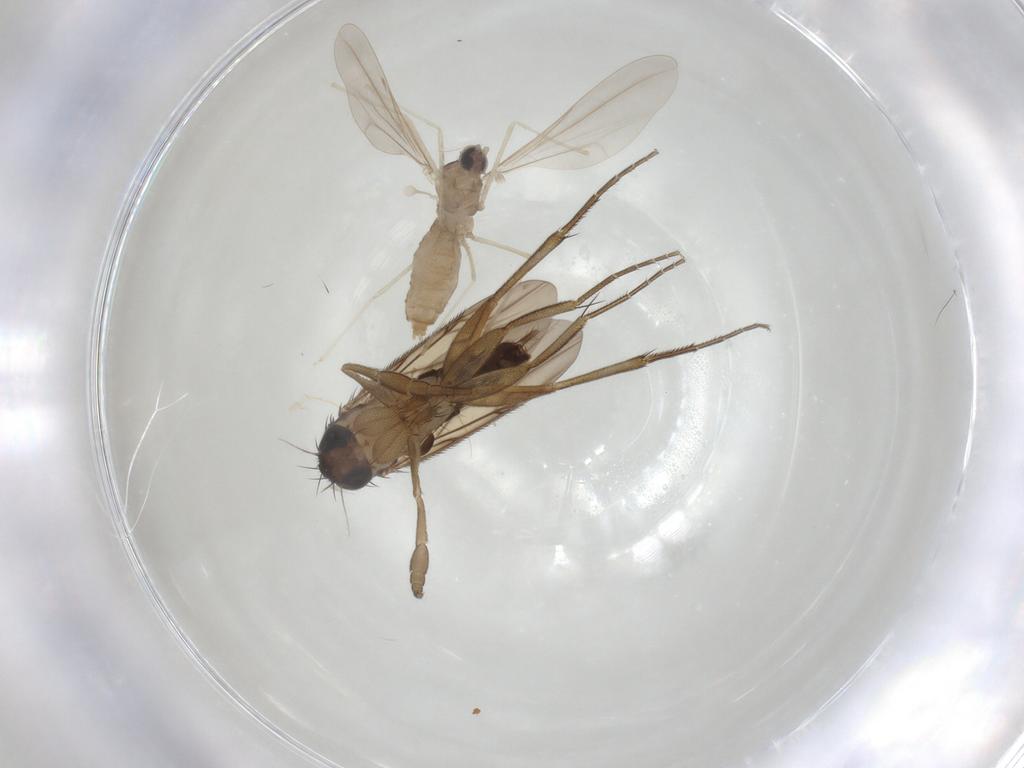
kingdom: Animalia
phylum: Arthropoda
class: Insecta
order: Diptera
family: Cecidomyiidae
